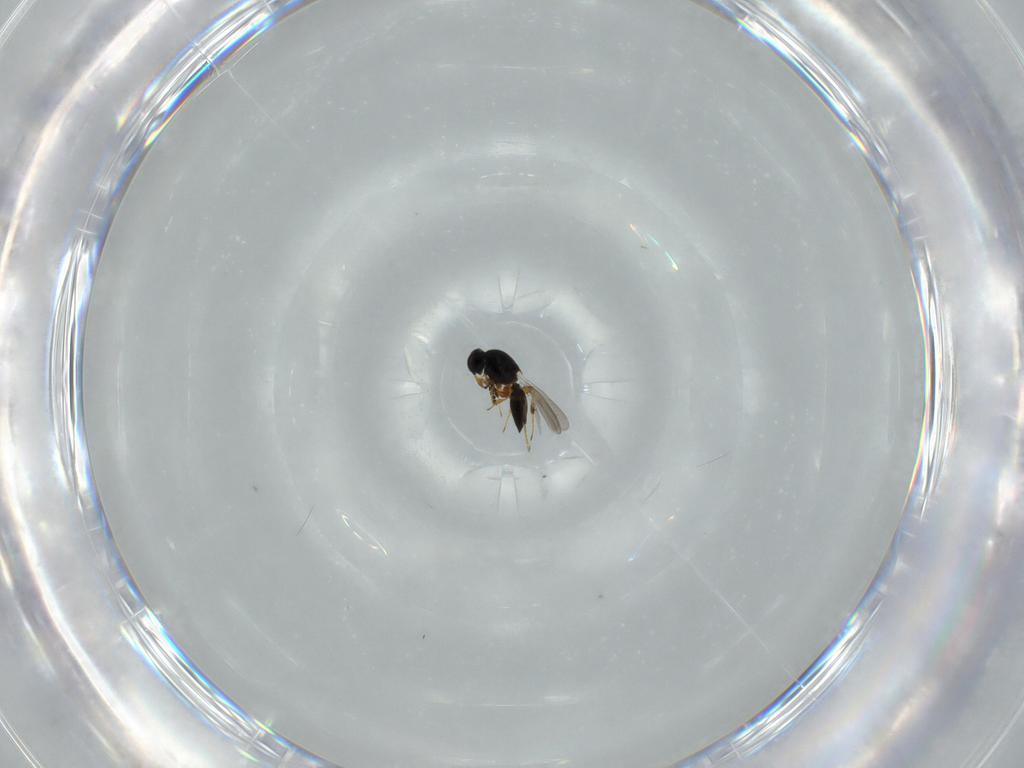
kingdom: Animalia
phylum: Arthropoda
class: Insecta
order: Hymenoptera
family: Platygastridae
